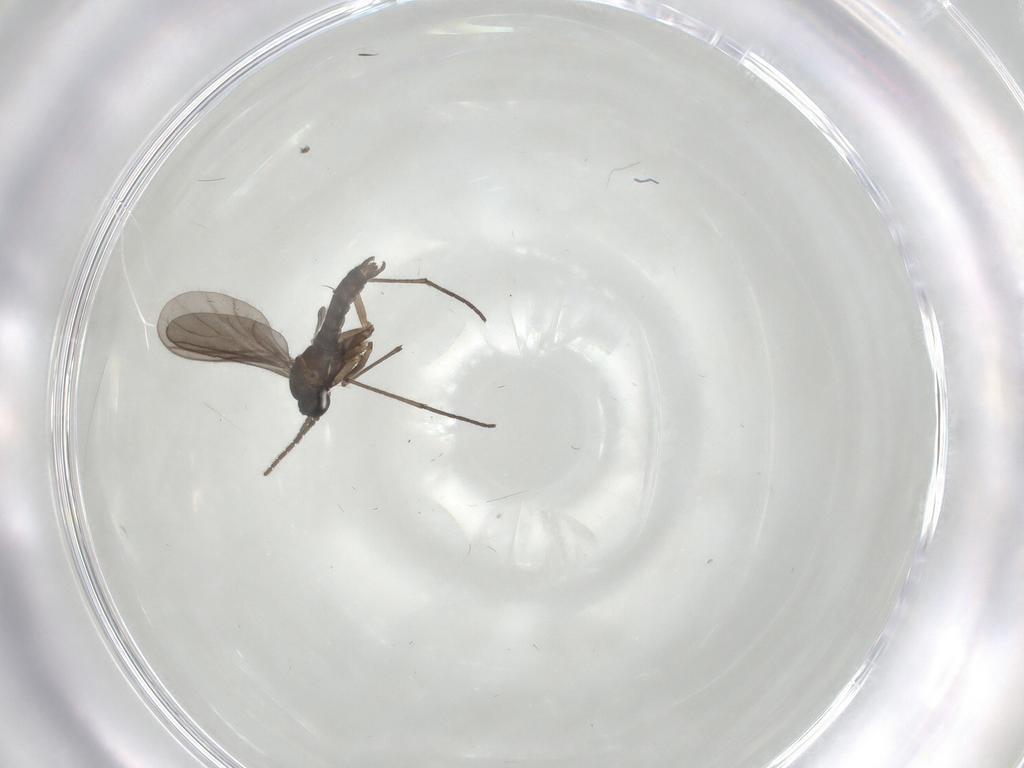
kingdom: Animalia
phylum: Arthropoda
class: Insecta
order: Diptera
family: Sciaridae
